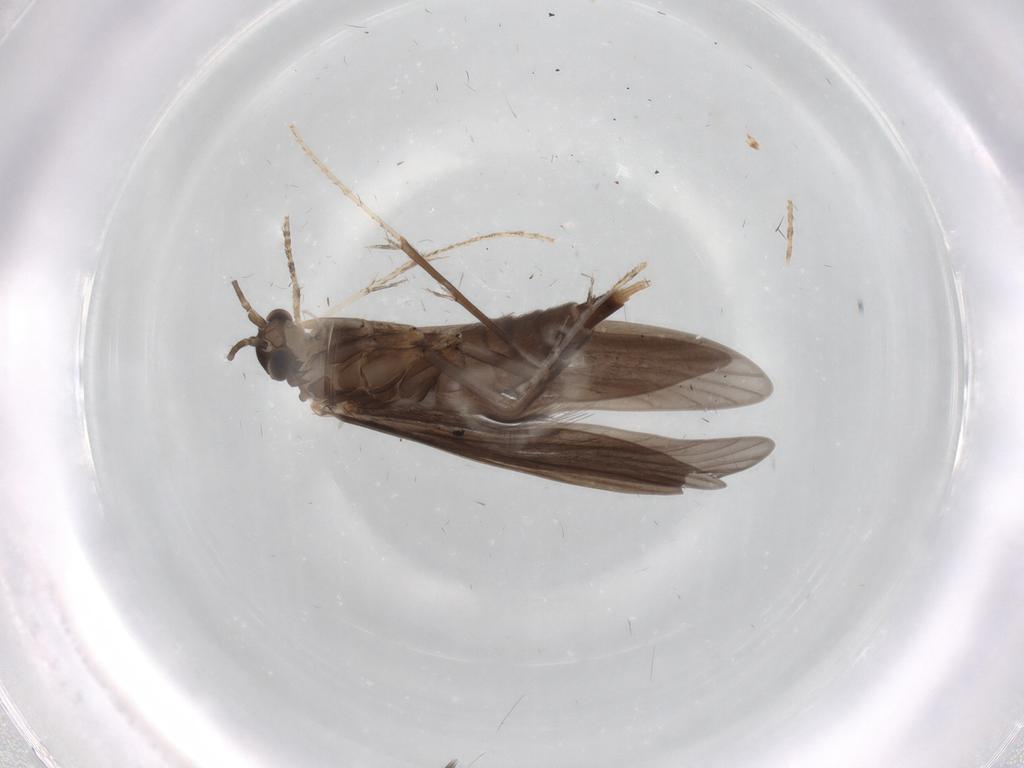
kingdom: Animalia
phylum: Arthropoda
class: Insecta
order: Trichoptera
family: Xiphocentronidae
